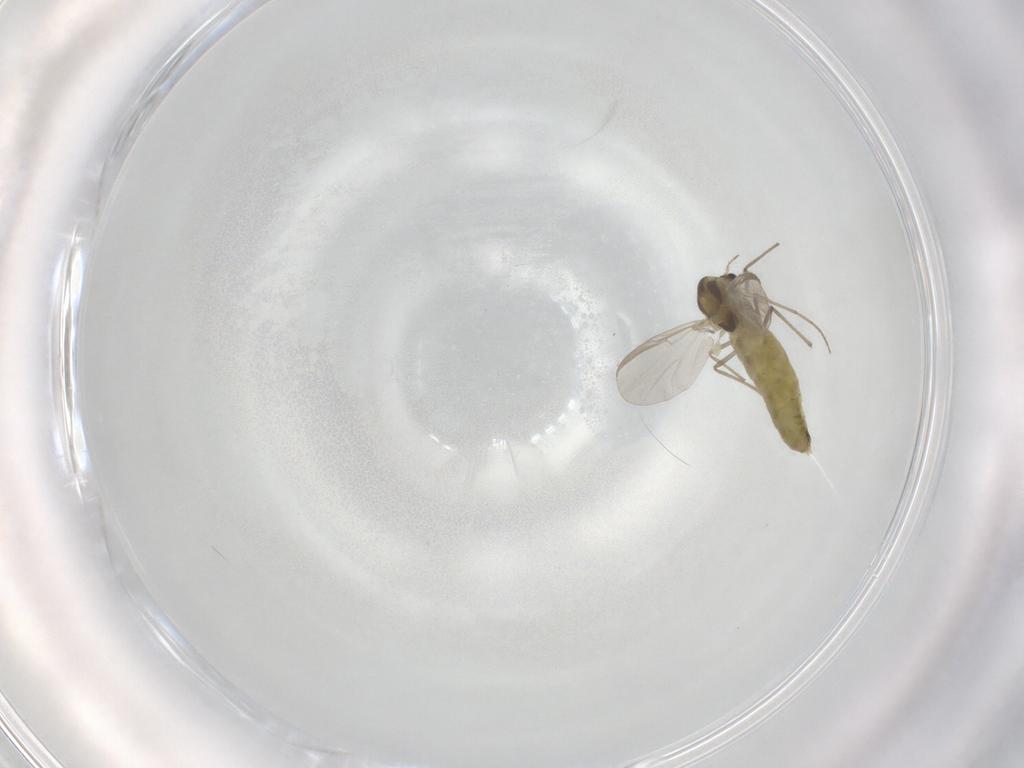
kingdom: Animalia
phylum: Arthropoda
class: Insecta
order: Diptera
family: Chironomidae
